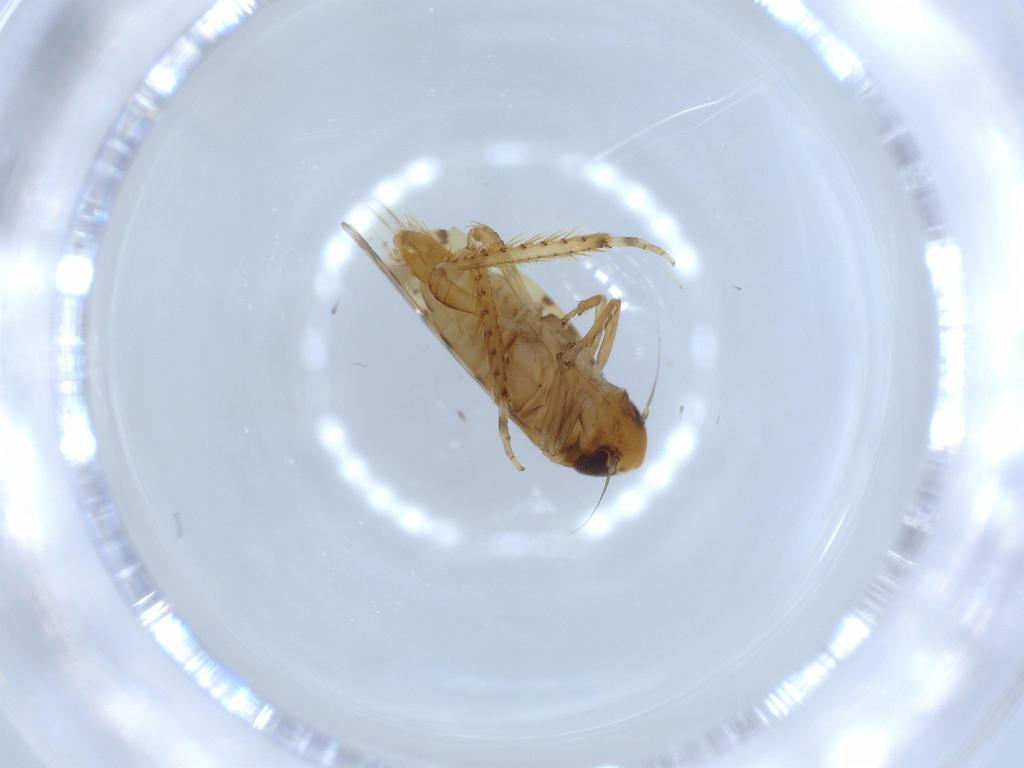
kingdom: Animalia
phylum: Arthropoda
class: Insecta
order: Hemiptera
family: Cicadellidae
